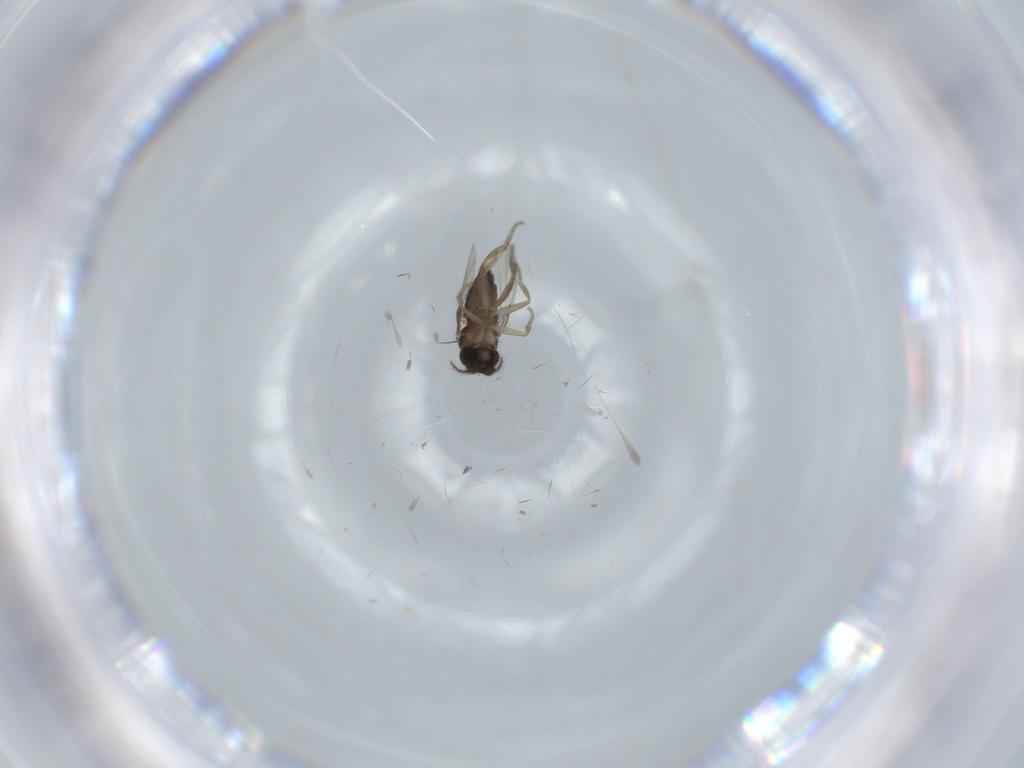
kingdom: Animalia
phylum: Arthropoda
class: Insecta
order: Diptera
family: Phoridae
